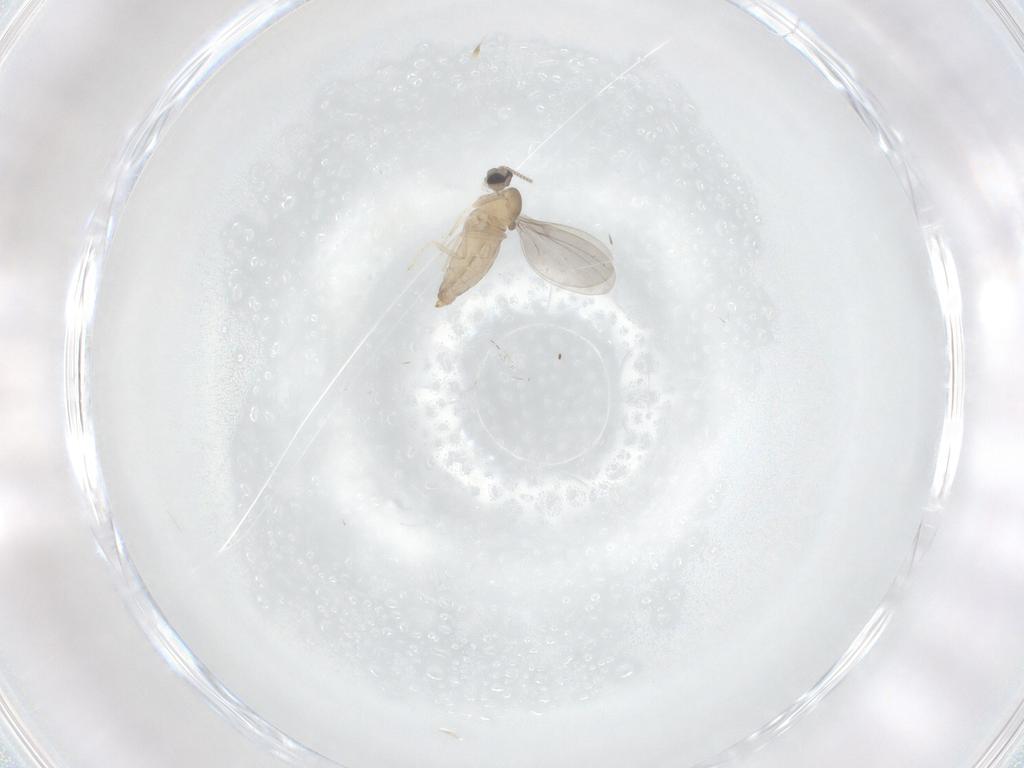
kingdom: Animalia
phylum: Arthropoda
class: Insecta
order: Diptera
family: Cecidomyiidae
